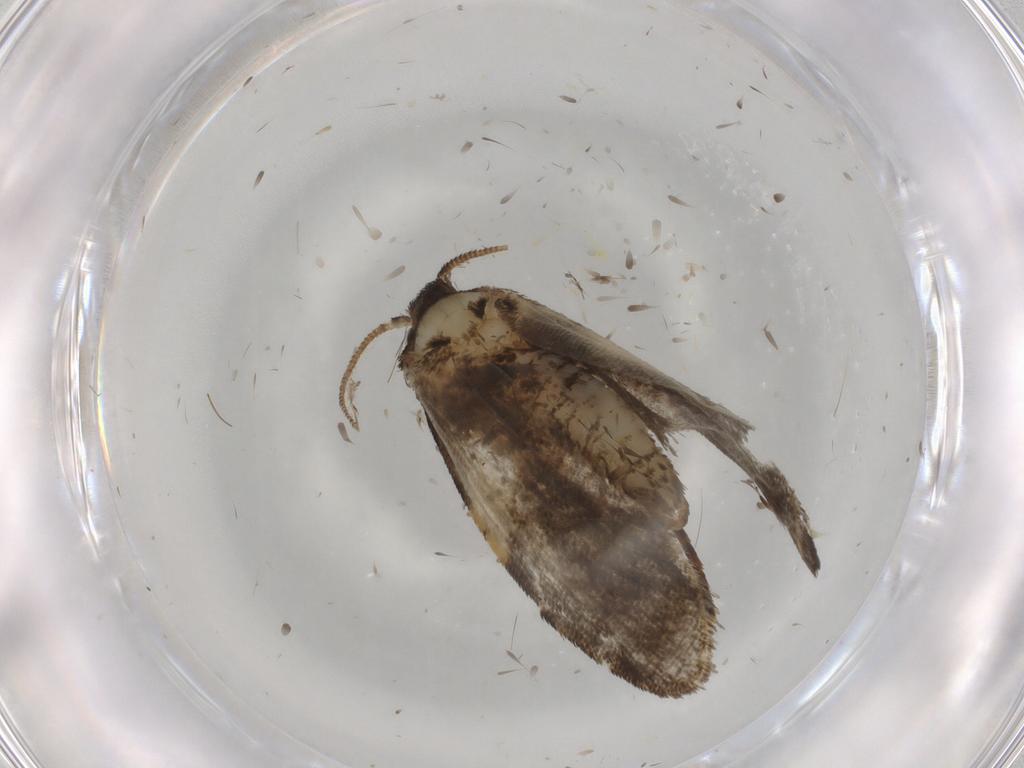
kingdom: Animalia
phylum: Arthropoda
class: Insecta
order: Lepidoptera
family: Psychidae
